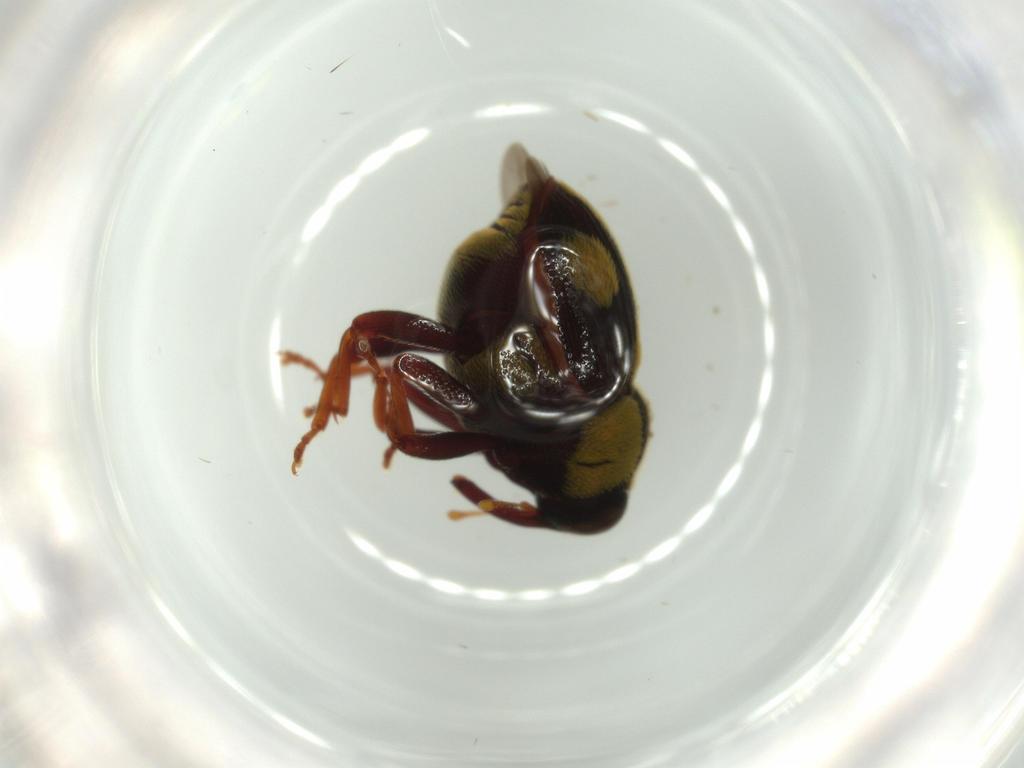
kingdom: Animalia
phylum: Arthropoda
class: Insecta
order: Coleoptera
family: Curculionidae
